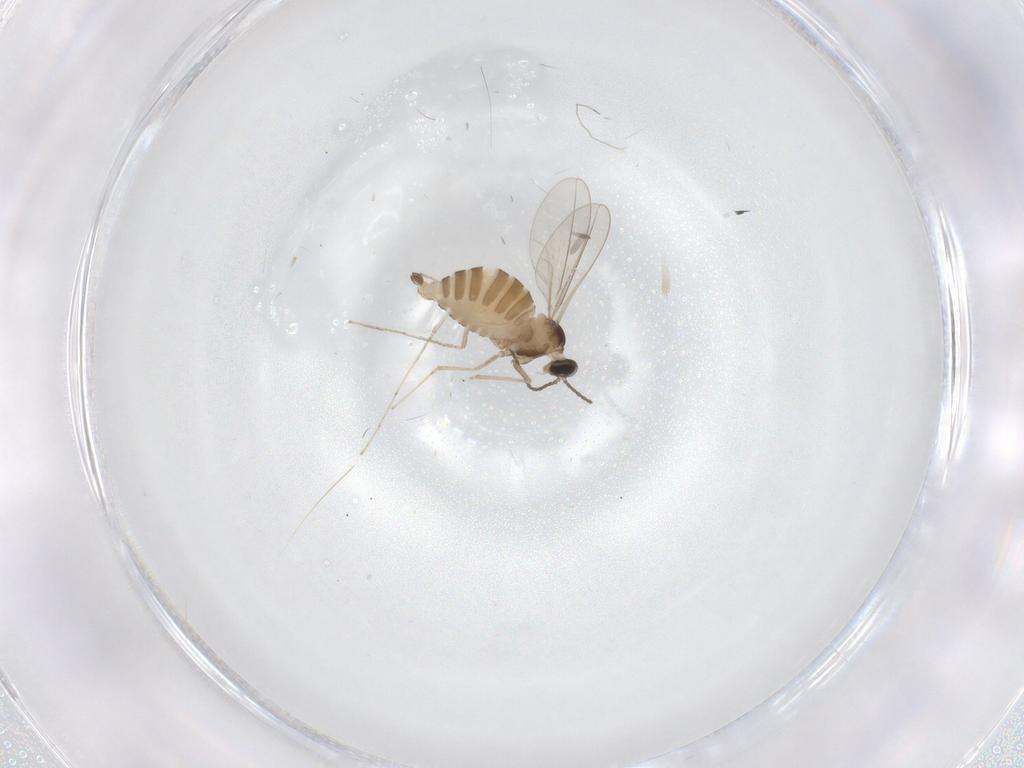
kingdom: Animalia
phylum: Arthropoda
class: Insecta
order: Diptera
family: Cecidomyiidae
